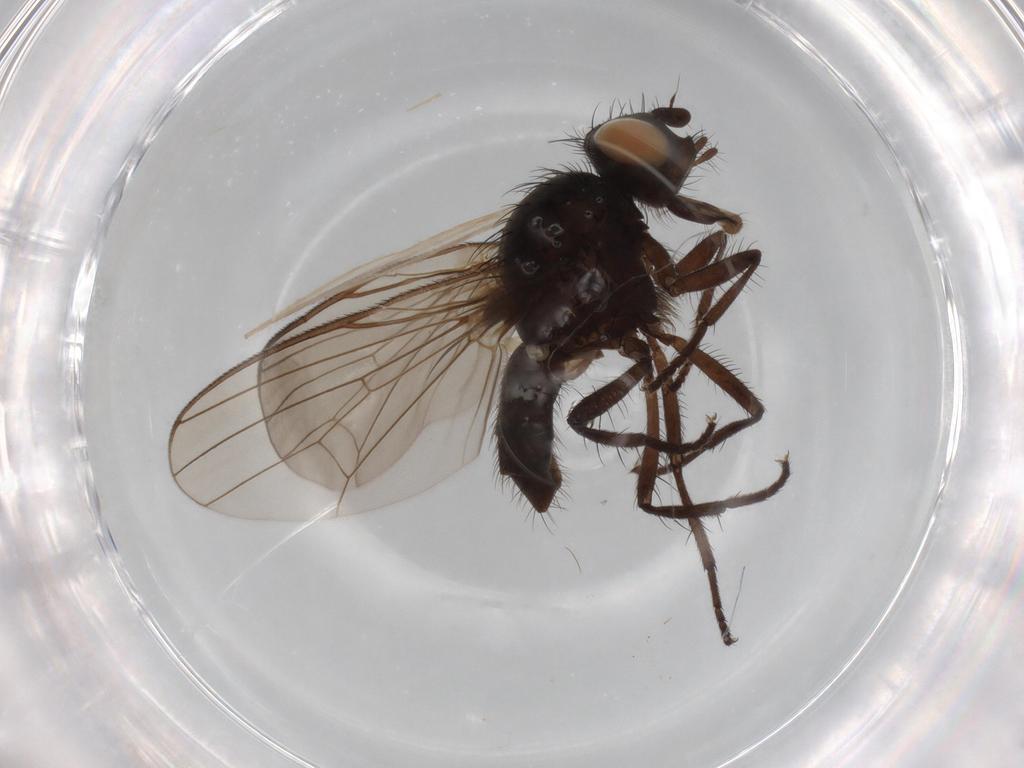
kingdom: Animalia
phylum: Arthropoda
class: Insecta
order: Diptera
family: Anthomyiidae
